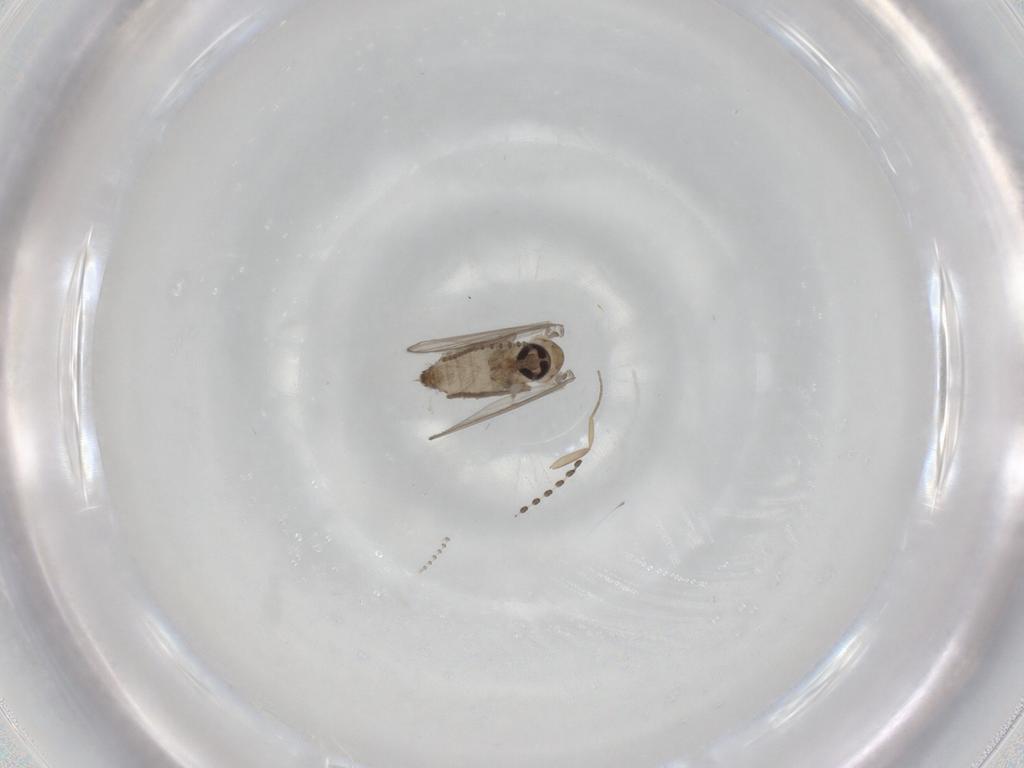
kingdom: Animalia
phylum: Arthropoda
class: Insecta
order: Diptera
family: Psychodidae
